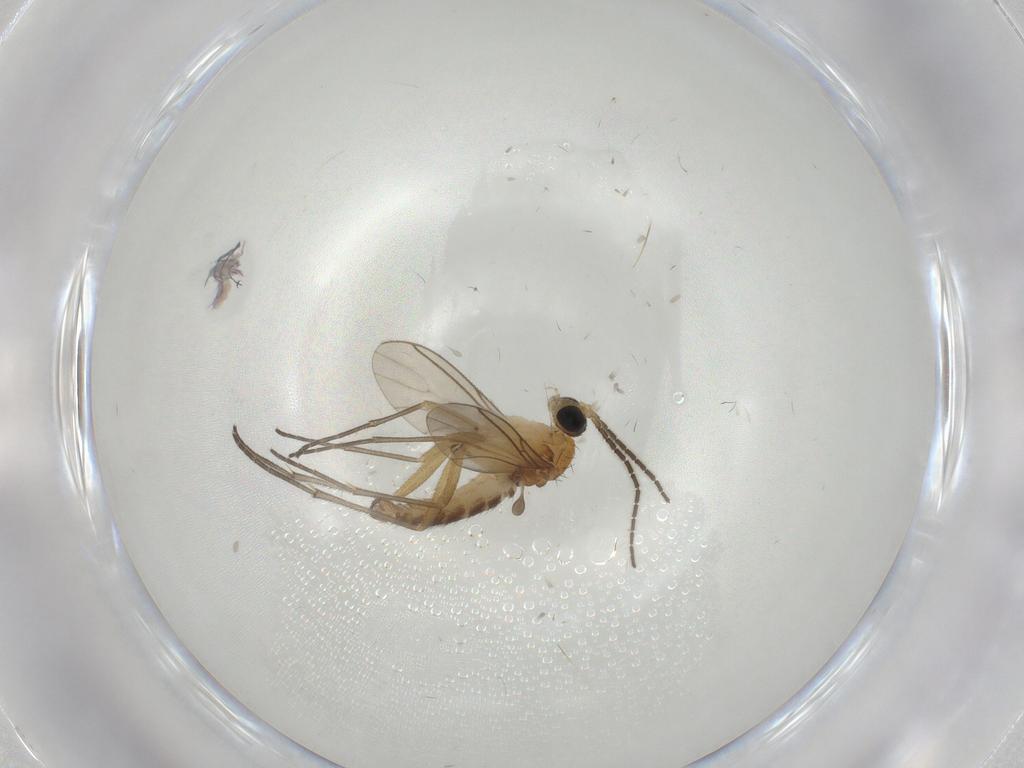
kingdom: Animalia
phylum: Arthropoda
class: Insecta
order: Diptera
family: Sciaridae
